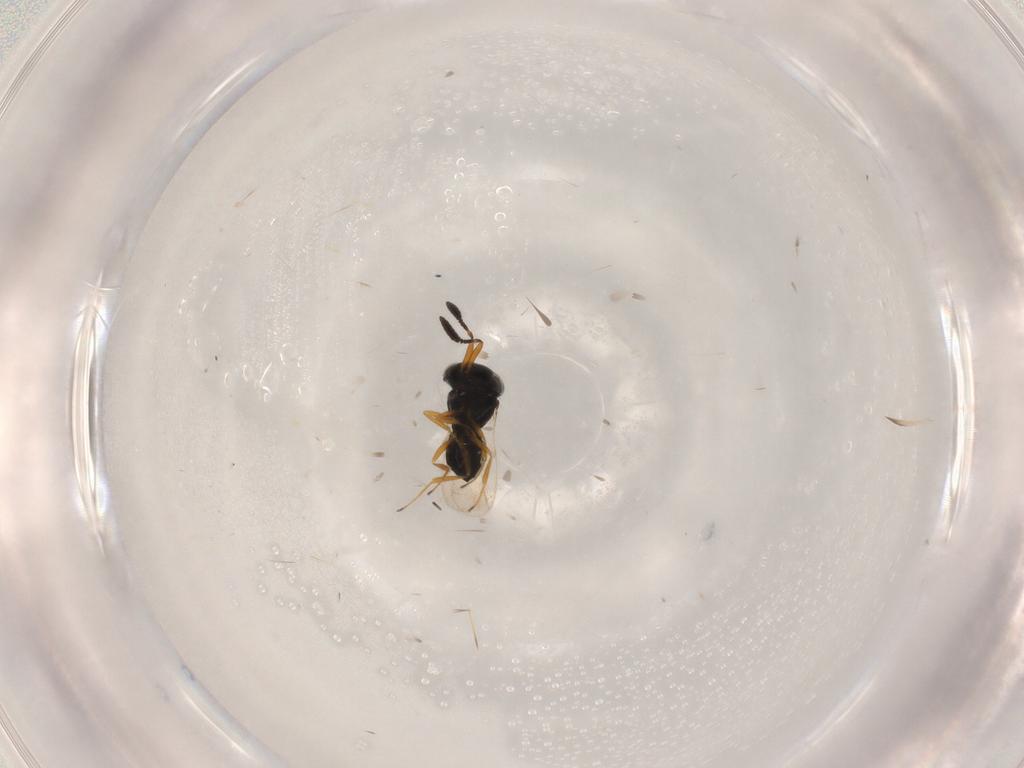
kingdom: Animalia
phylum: Arthropoda
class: Insecta
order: Hymenoptera
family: Scelionidae
